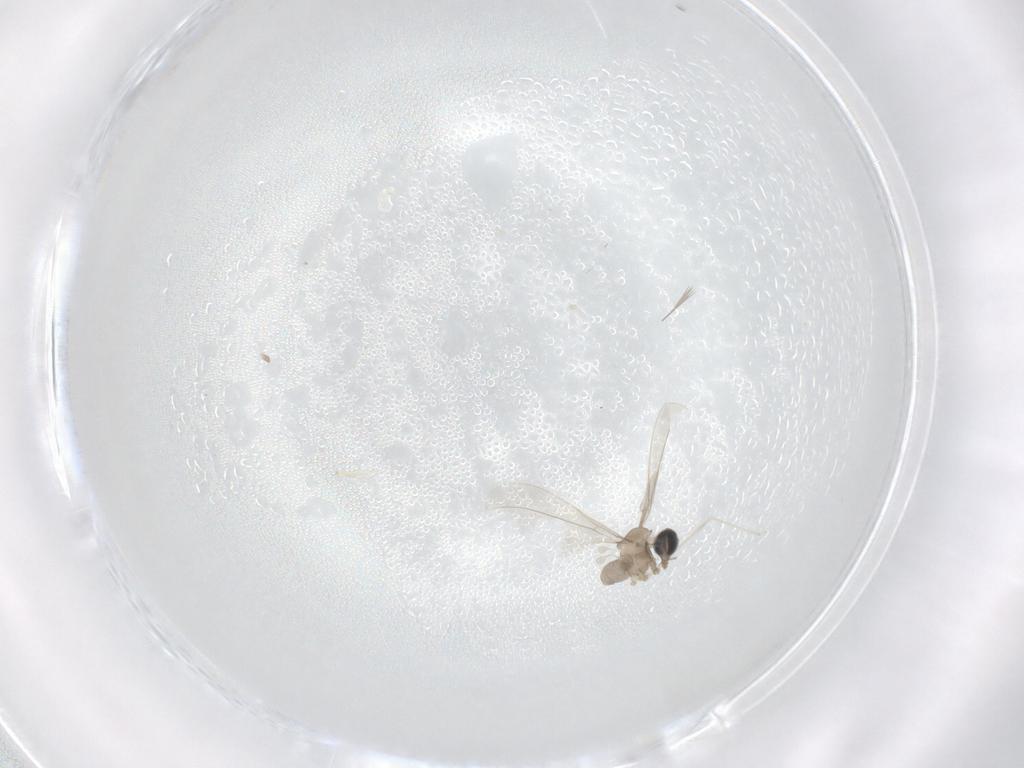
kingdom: Animalia
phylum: Arthropoda
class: Insecta
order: Diptera
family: Cecidomyiidae
